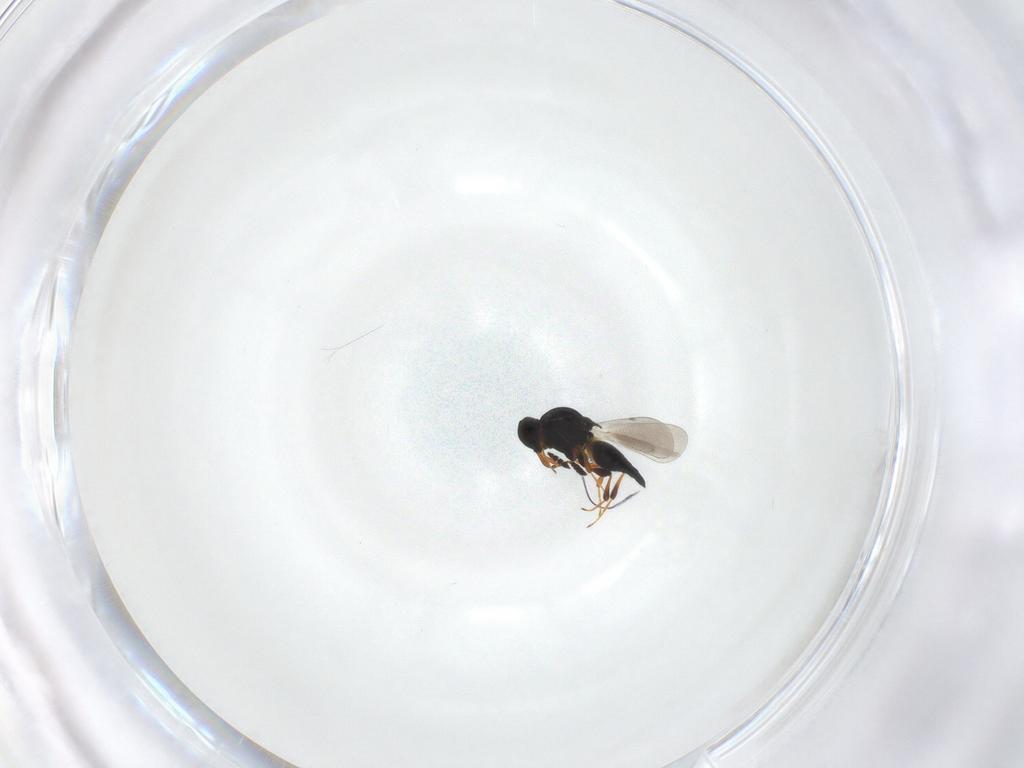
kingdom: Animalia
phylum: Arthropoda
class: Insecta
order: Hymenoptera
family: Platygastridae
